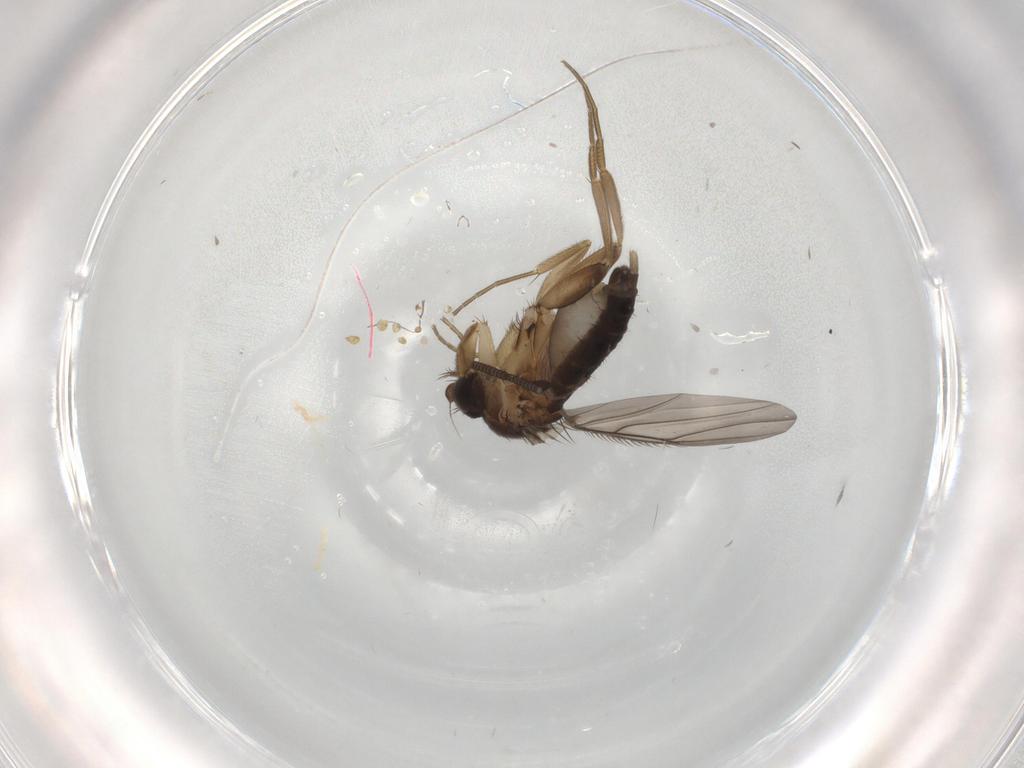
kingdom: Animalia
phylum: Arthropoda
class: Insecta
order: Diptera
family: Phoridae
